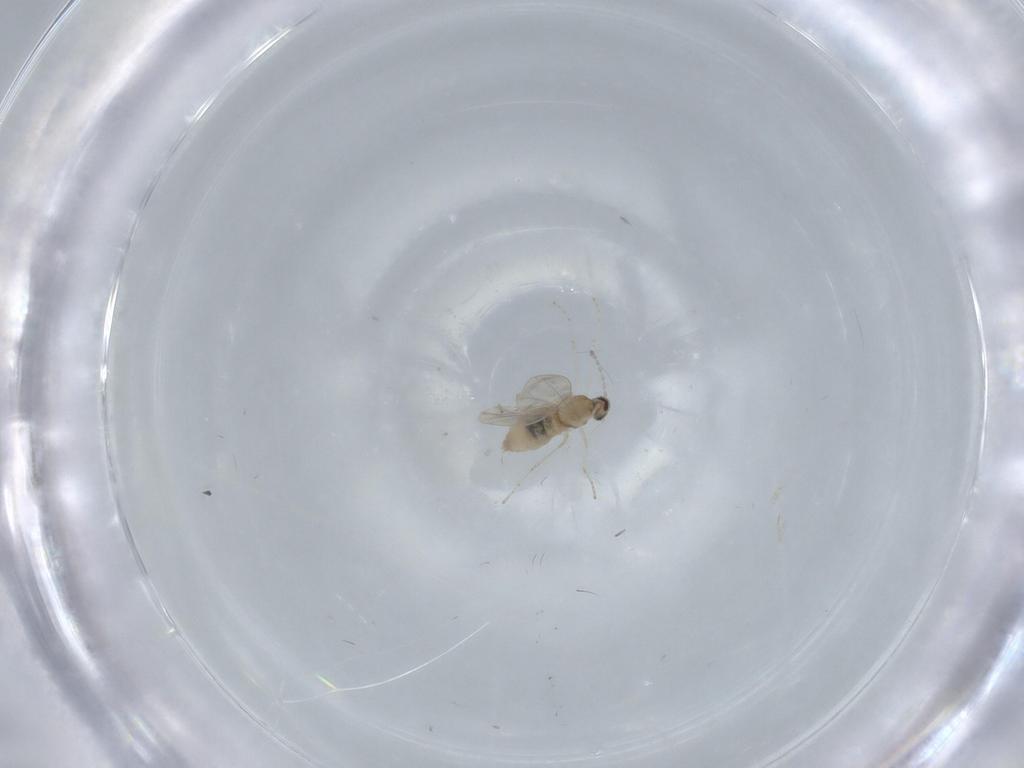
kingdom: Animalia
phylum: Arthropoda
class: Insecta
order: Diptera
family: Cecidomyiidae
